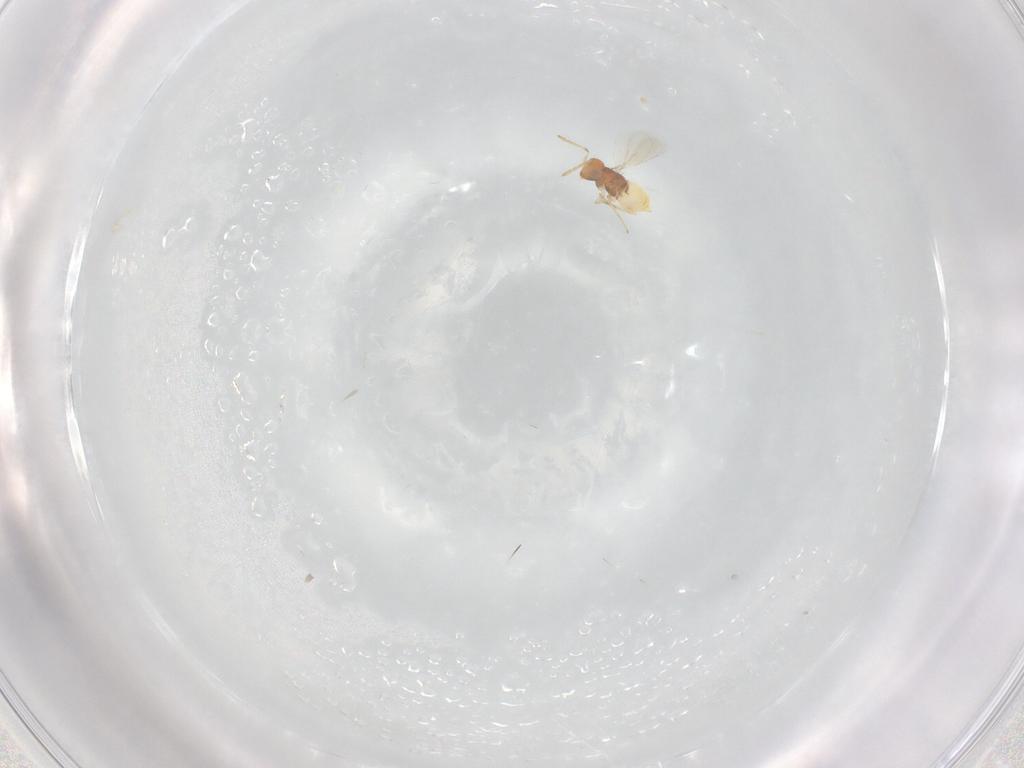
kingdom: Animalia
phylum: Arthropoda
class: Insecta
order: Hymenoptera
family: Aphelinidae
